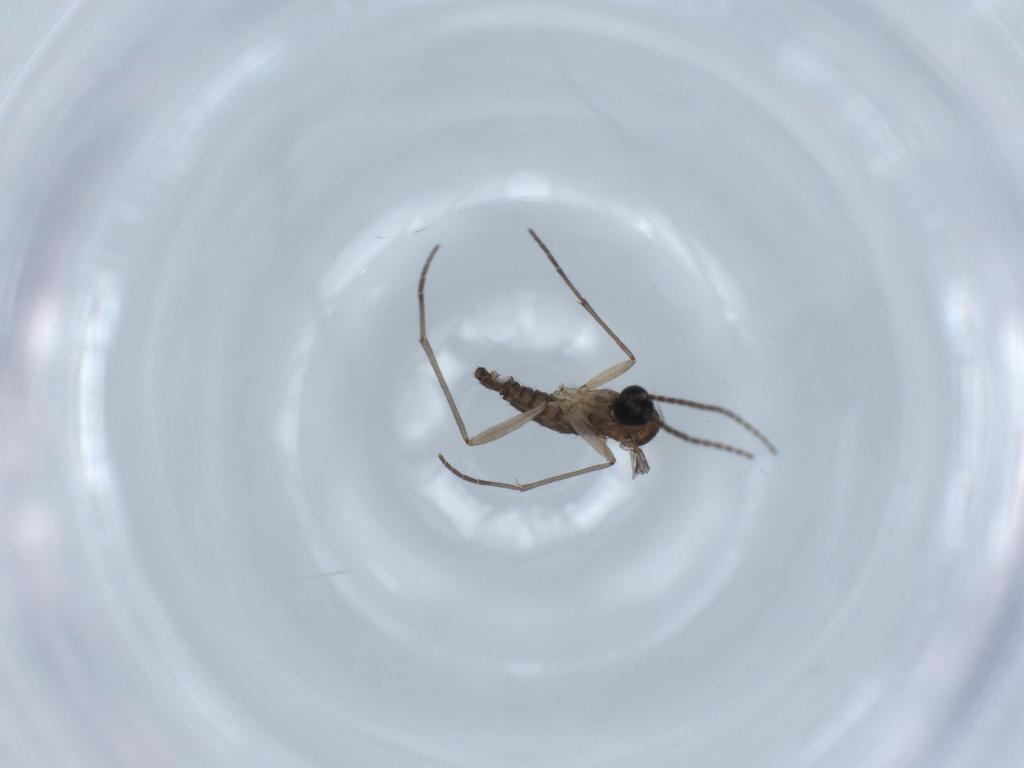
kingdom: Animalia
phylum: Arthropoda
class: Insecta
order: Diptera
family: Sciaridae
